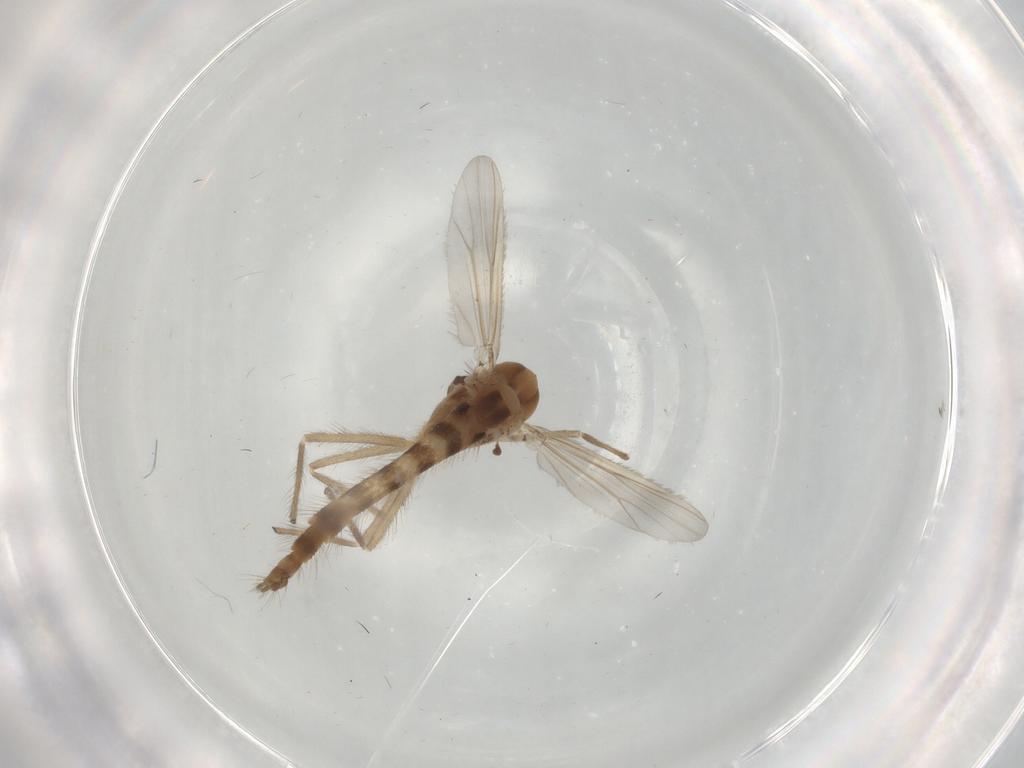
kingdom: Animalia
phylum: Arthropoda
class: Insecta
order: Diptera
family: Chironomidae
